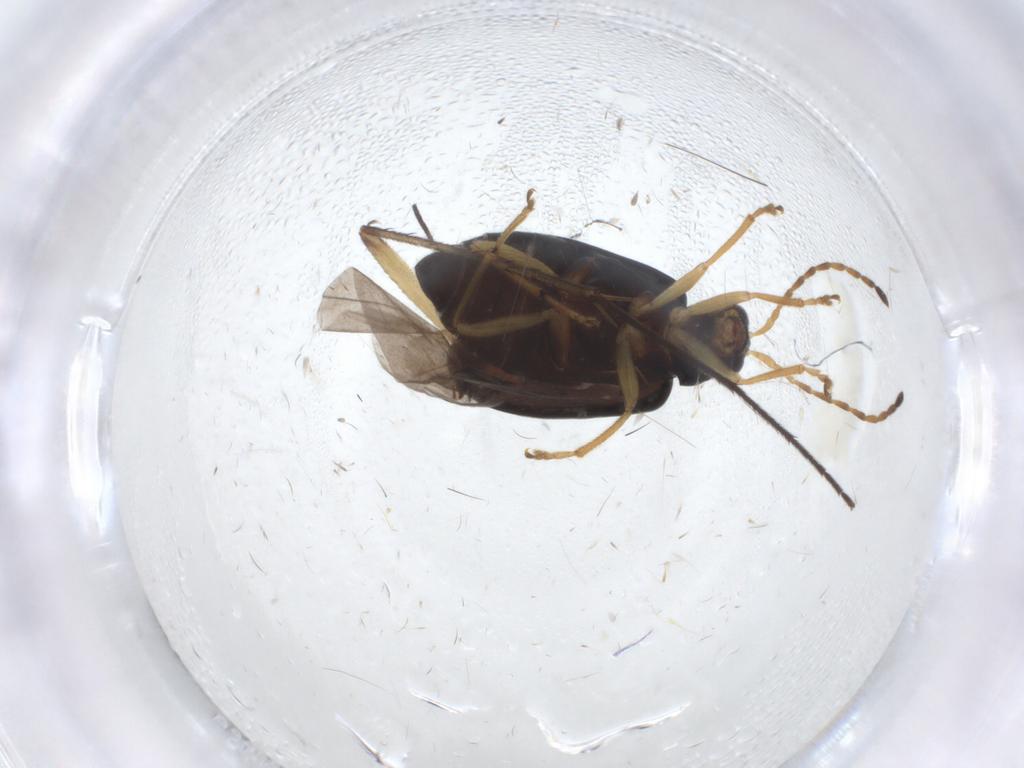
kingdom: Animalia
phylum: Arthropoda
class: Insecta
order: Coleoptera
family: Chrysomelidae
